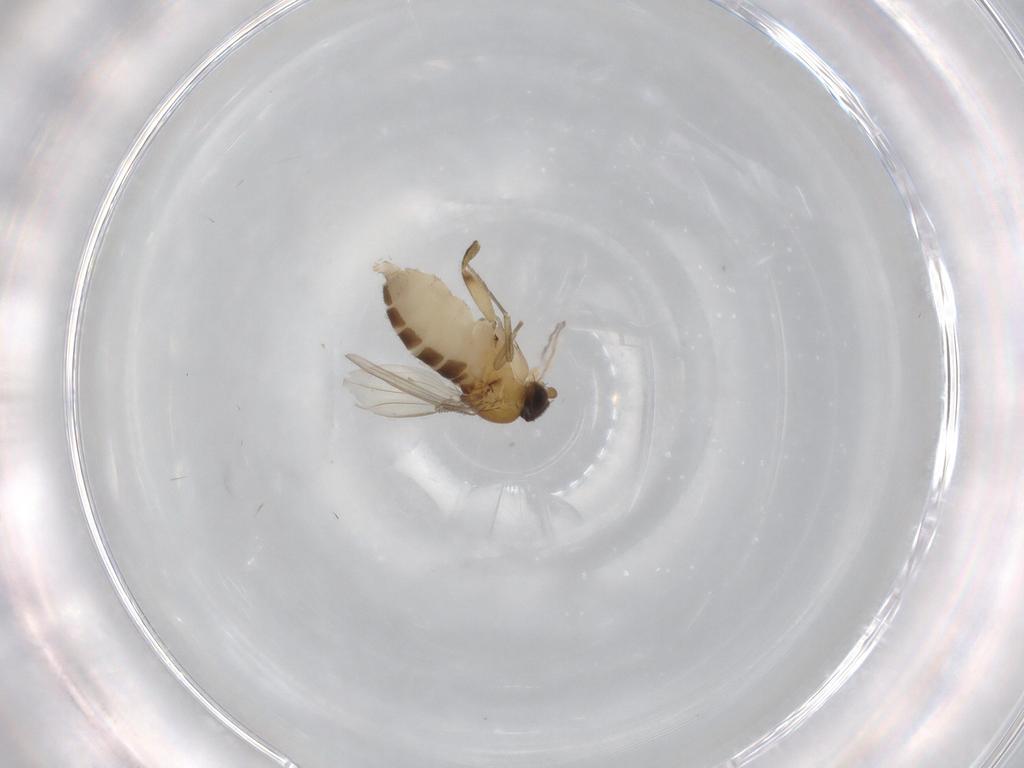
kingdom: Animalia
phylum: Arthropoda
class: Insecta
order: Diptera
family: Phoridae
